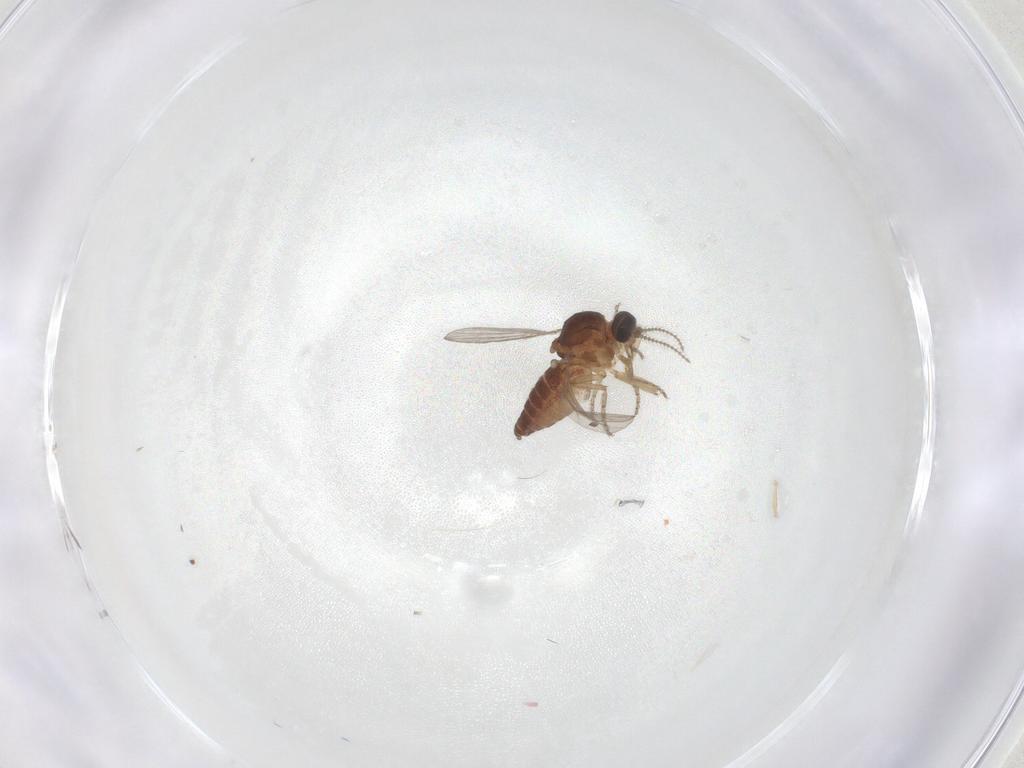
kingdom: Animalia
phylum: Arthropoda
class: Insecta
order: Diptera
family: Ceratopogonidae
